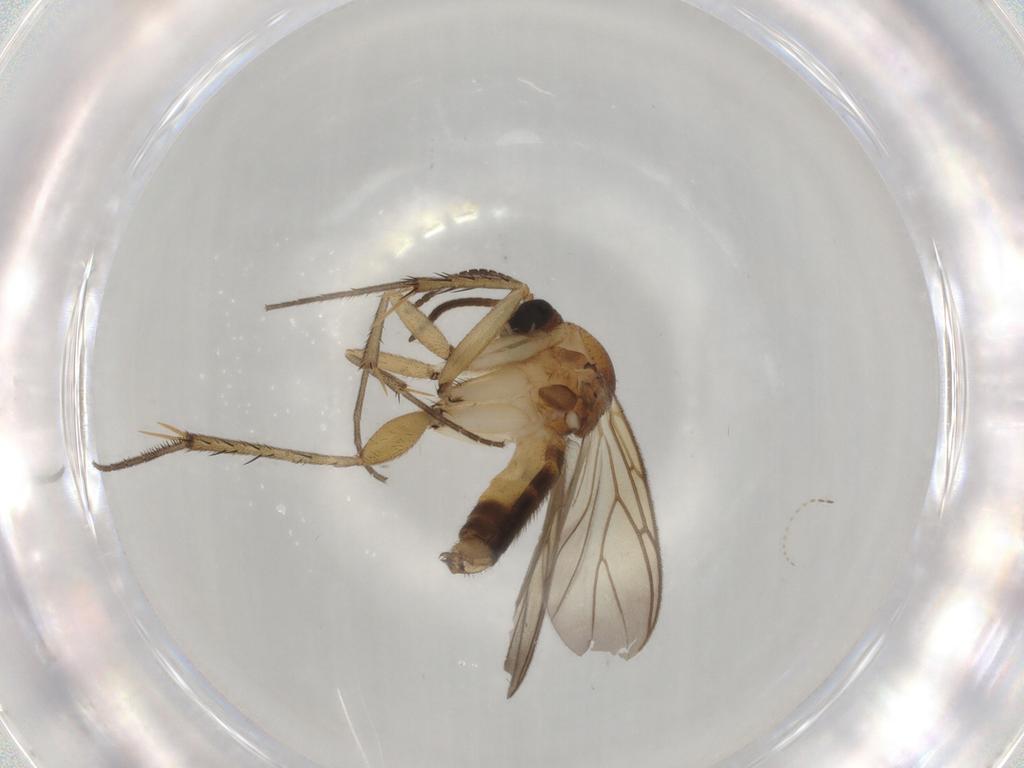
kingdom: Animalia
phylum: Arthropoda
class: Insecta
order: Diptera
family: Mycetophilidae
